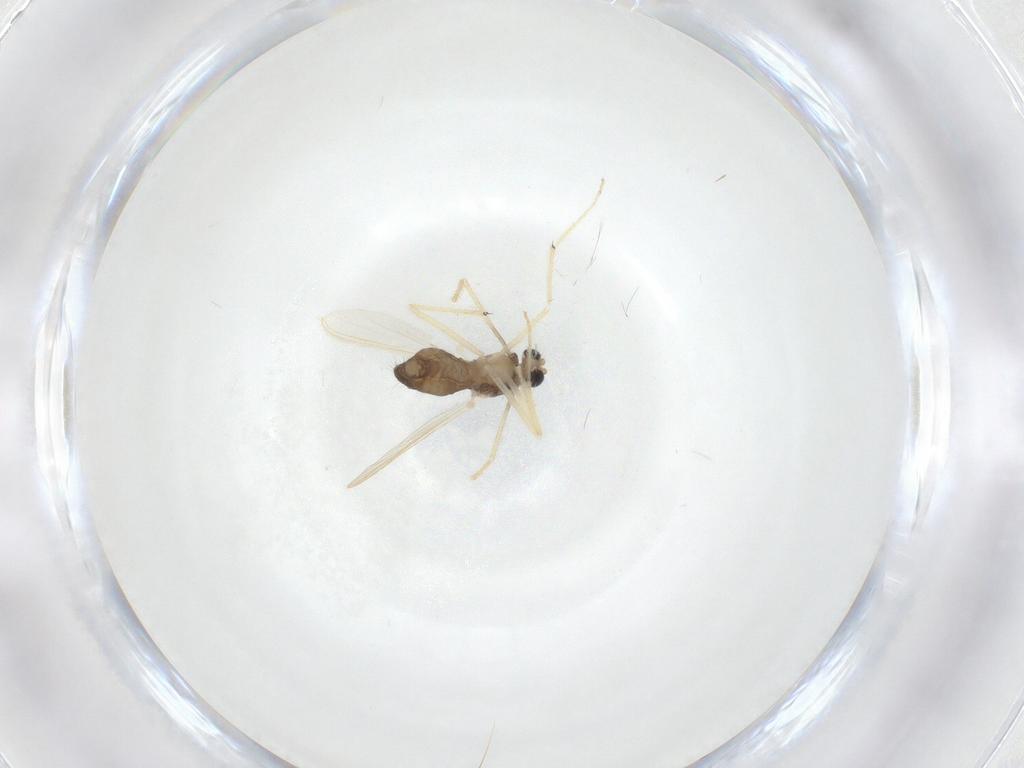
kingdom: Animalia
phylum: Arthropoda
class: Insecta
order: Diptera
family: Chironomidae
